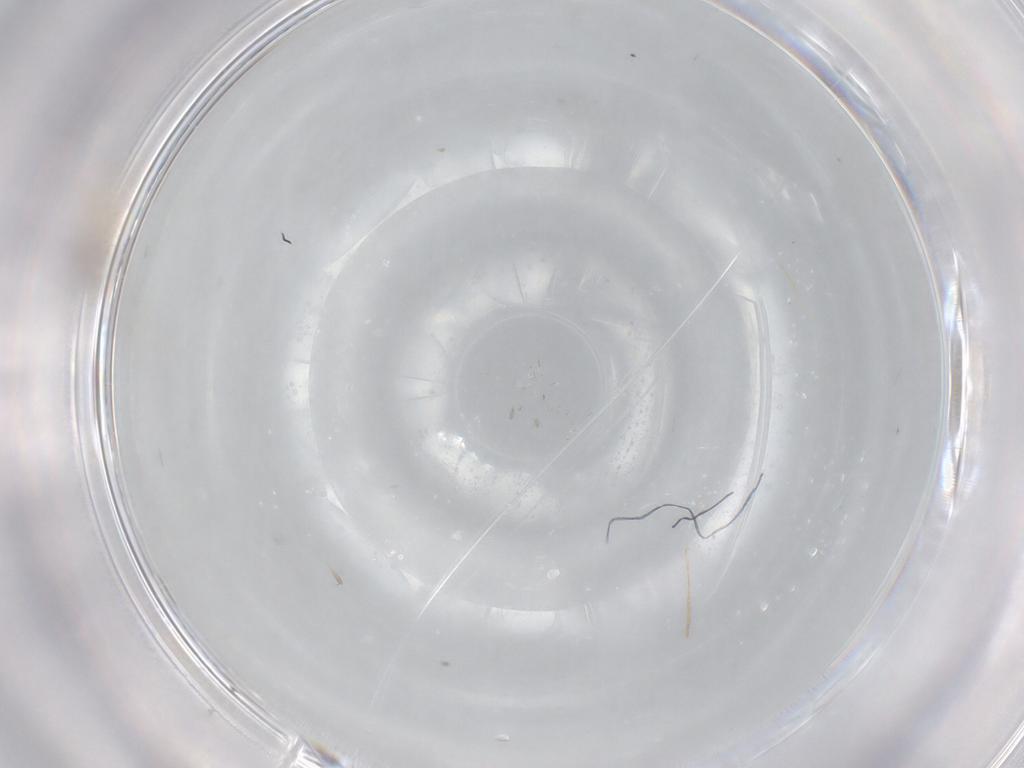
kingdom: Animalia
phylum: Arthropoda
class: Insecta
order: Diptera
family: Cecidomyiidae
